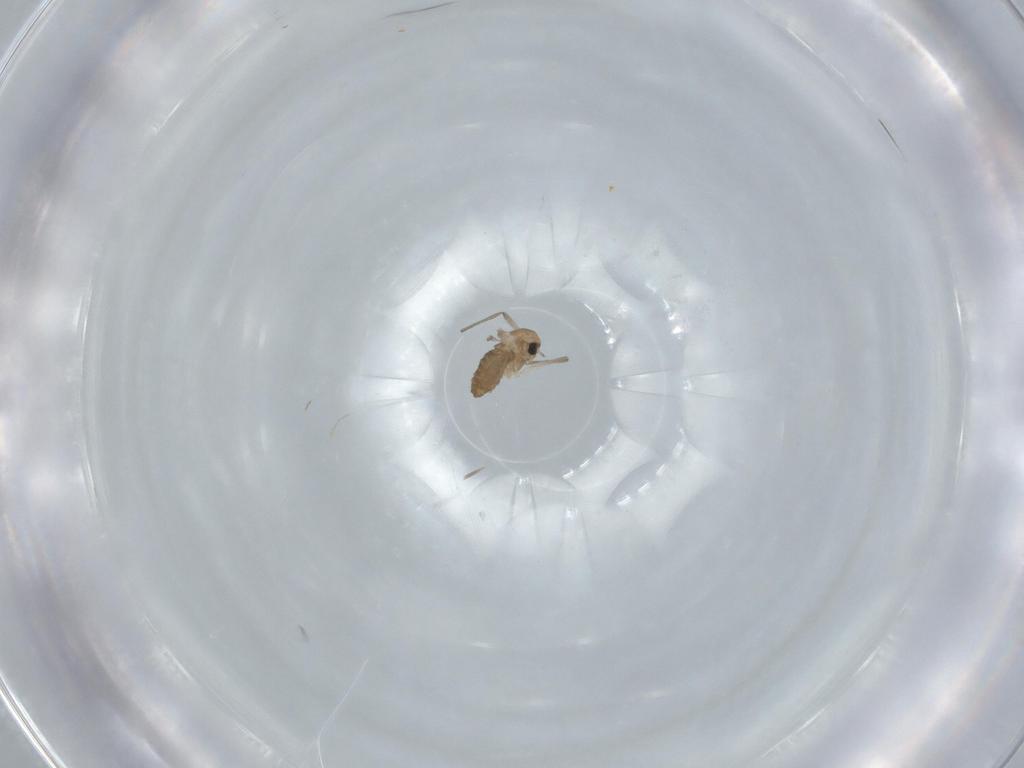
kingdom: Animalia
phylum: Arthropoda
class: Insecta
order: Diptera
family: Chironomidae
